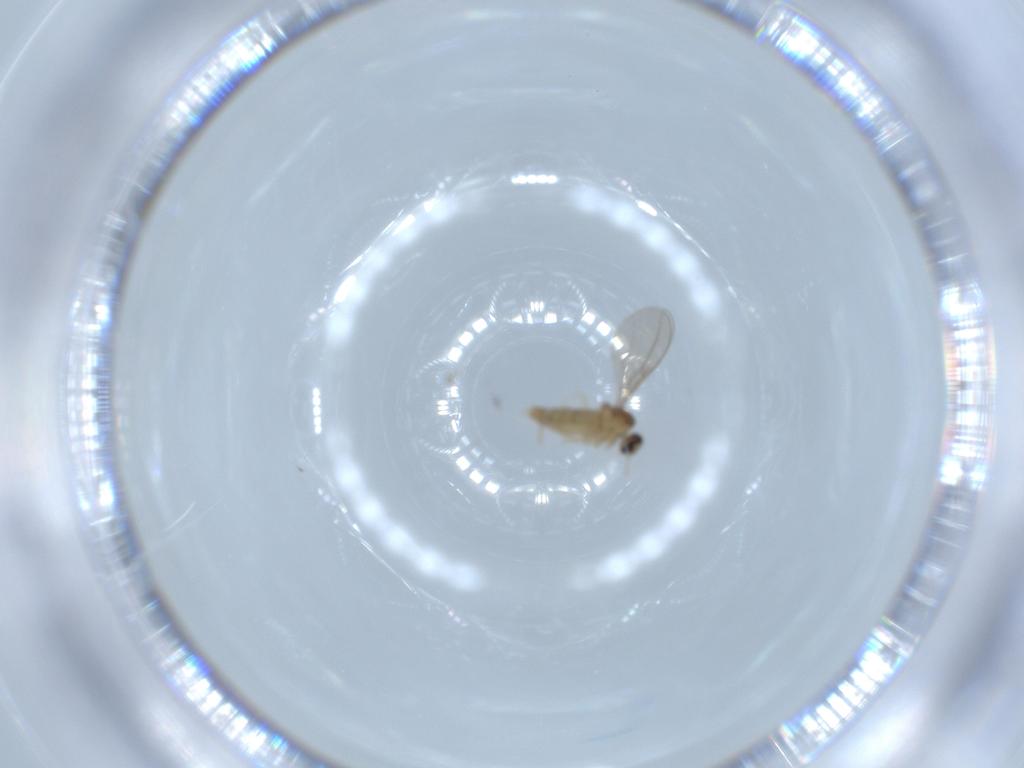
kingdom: Animalia
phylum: Arthropoda
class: Insecta
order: Diptera
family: Cecidomyiidae
